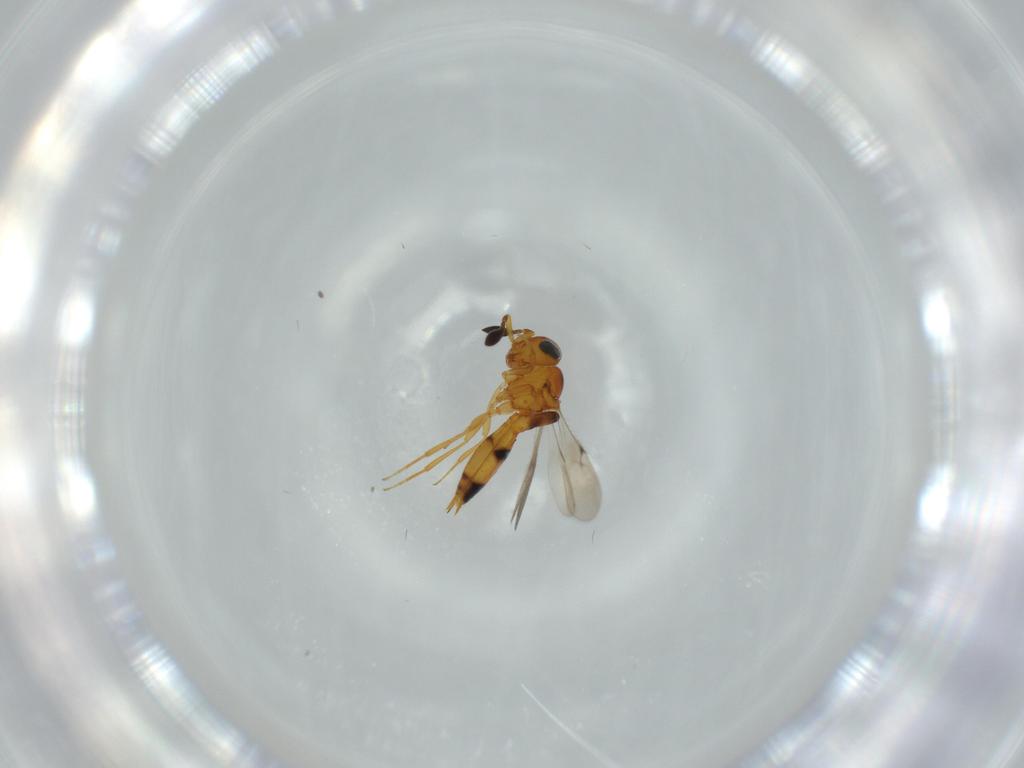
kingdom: Animalia
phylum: Arthropoda
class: Insecta
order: Hymenoptera
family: Scelionidae
